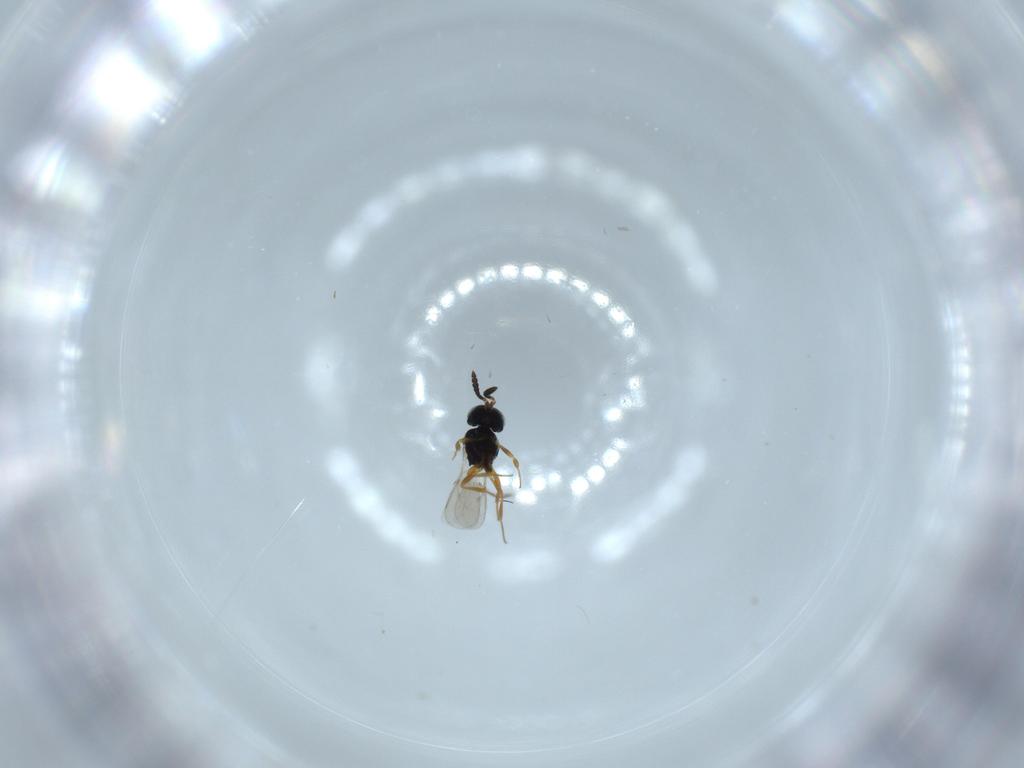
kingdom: Animalia
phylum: Arthropoda
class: Insecta
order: Hymenoptera
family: Scelionidae
